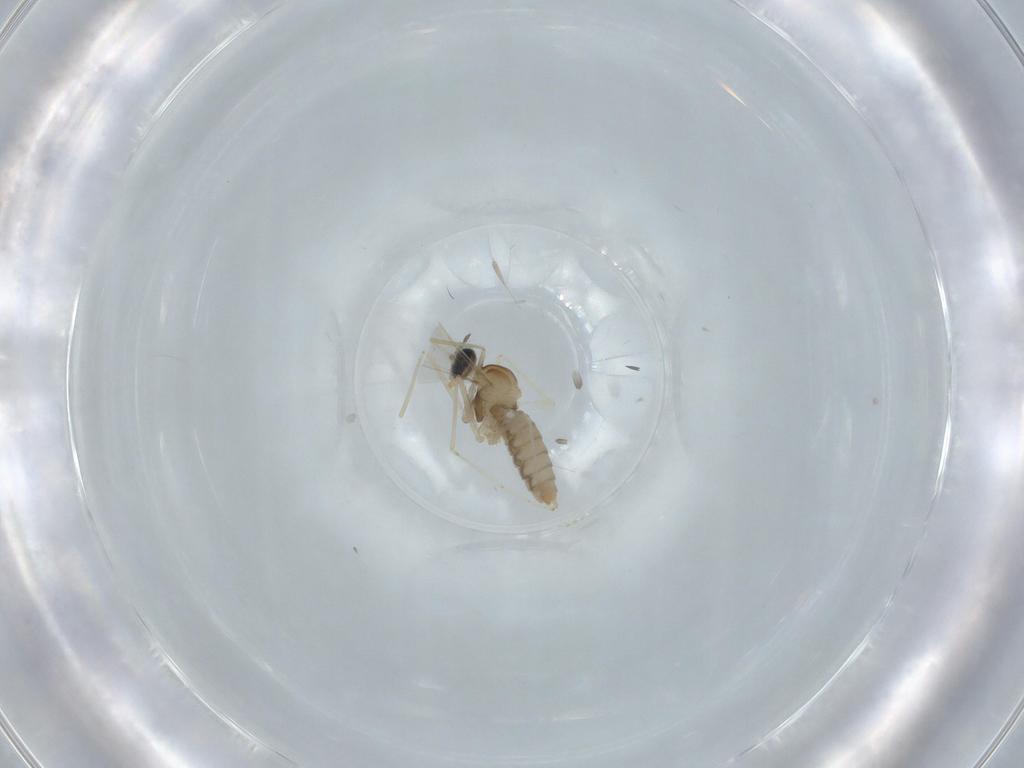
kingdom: Animalia
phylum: Arthropoda
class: Insecta
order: Diptera
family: Cecidomyiidae
